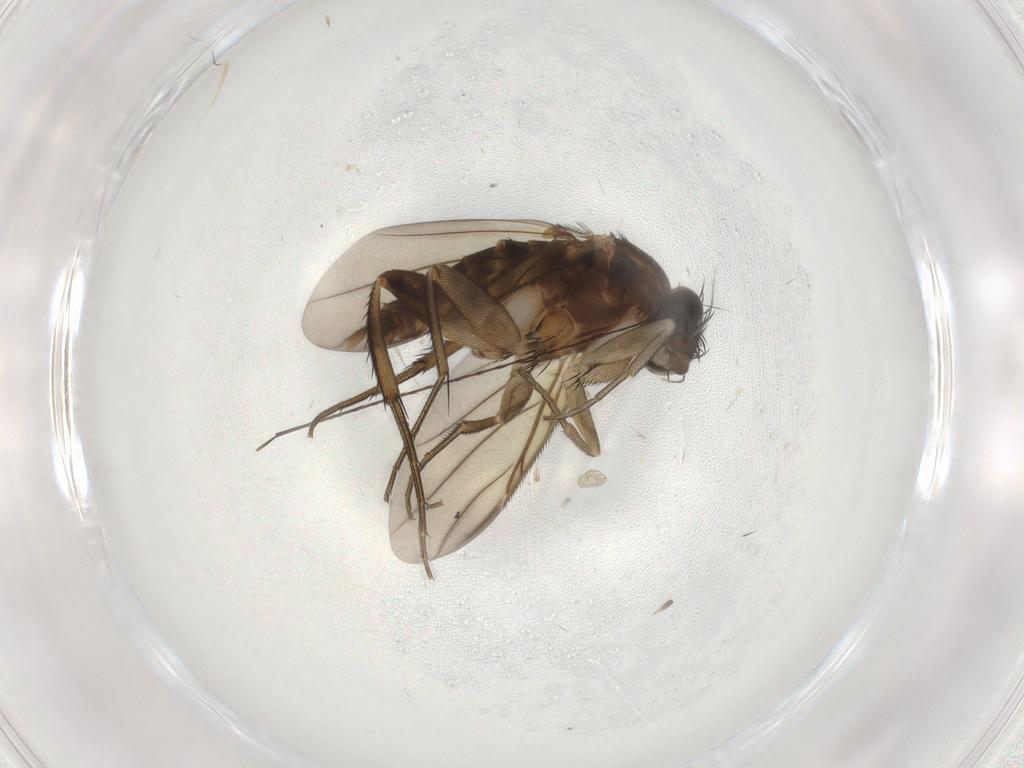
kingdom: Animalia
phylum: Arthropoda
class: Insecta
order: Diptera
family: Phoridae
